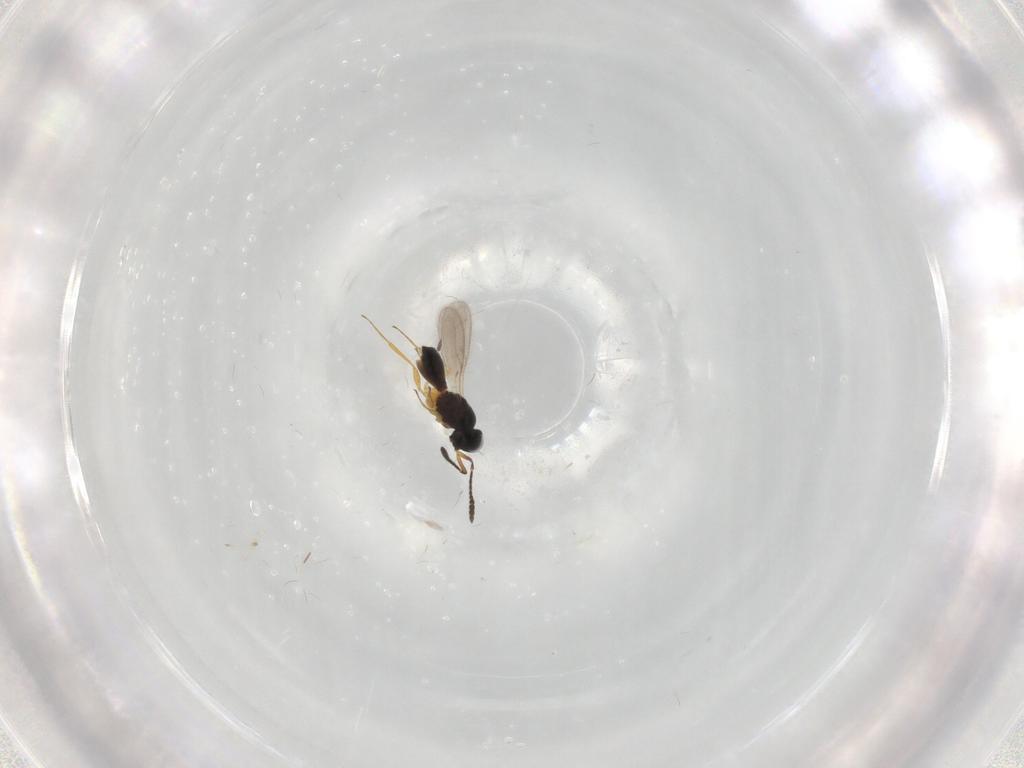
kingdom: Animalia
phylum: Arthropoda
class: Insecta
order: Hymenoptera
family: Scelionidae
